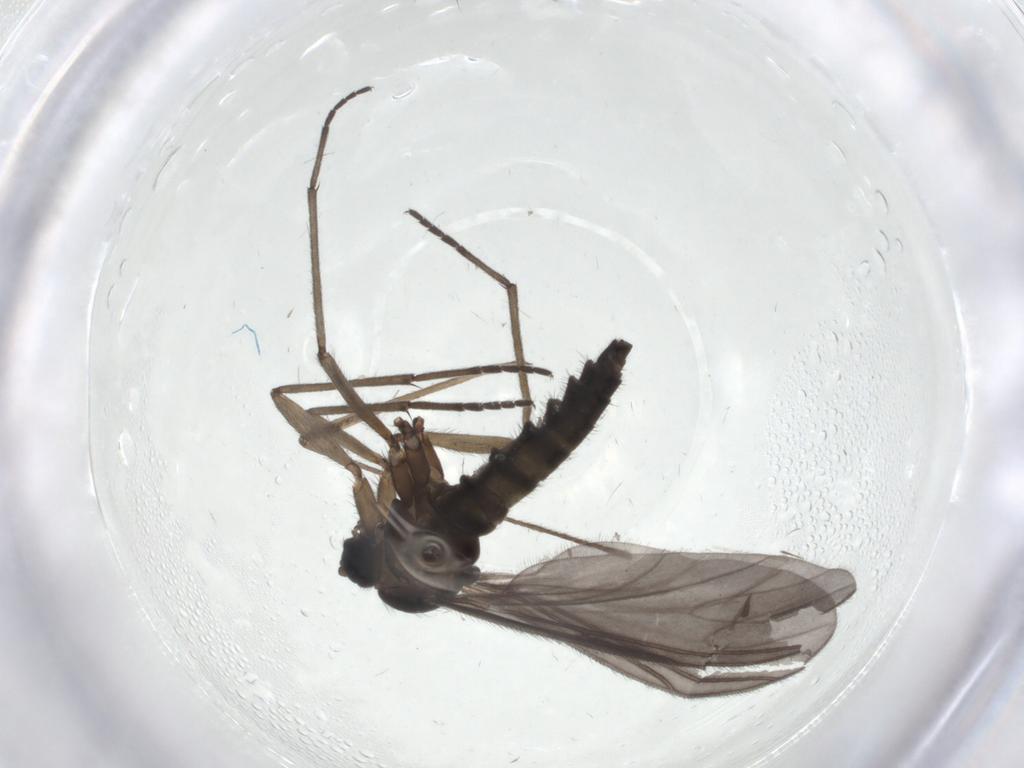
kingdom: Animalia
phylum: Arthropoda
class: Insecta
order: Diptera
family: Sciaridae
